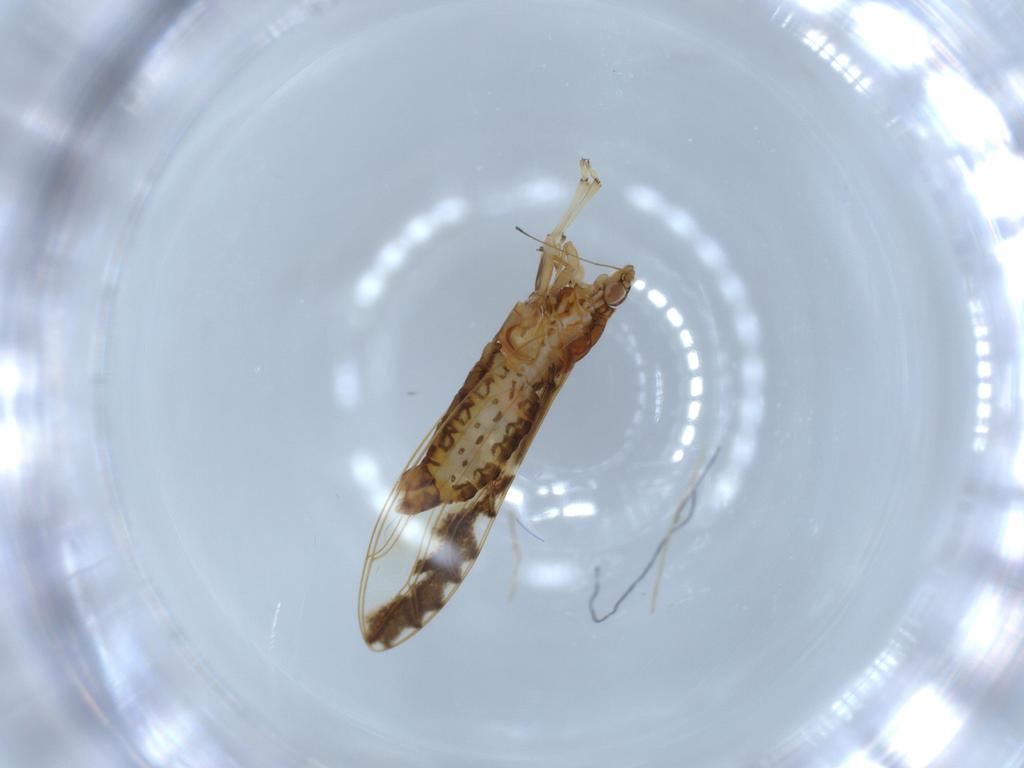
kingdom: Animalia
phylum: Arthropoda
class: Insecta
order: Hemiptera
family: Triozidae
